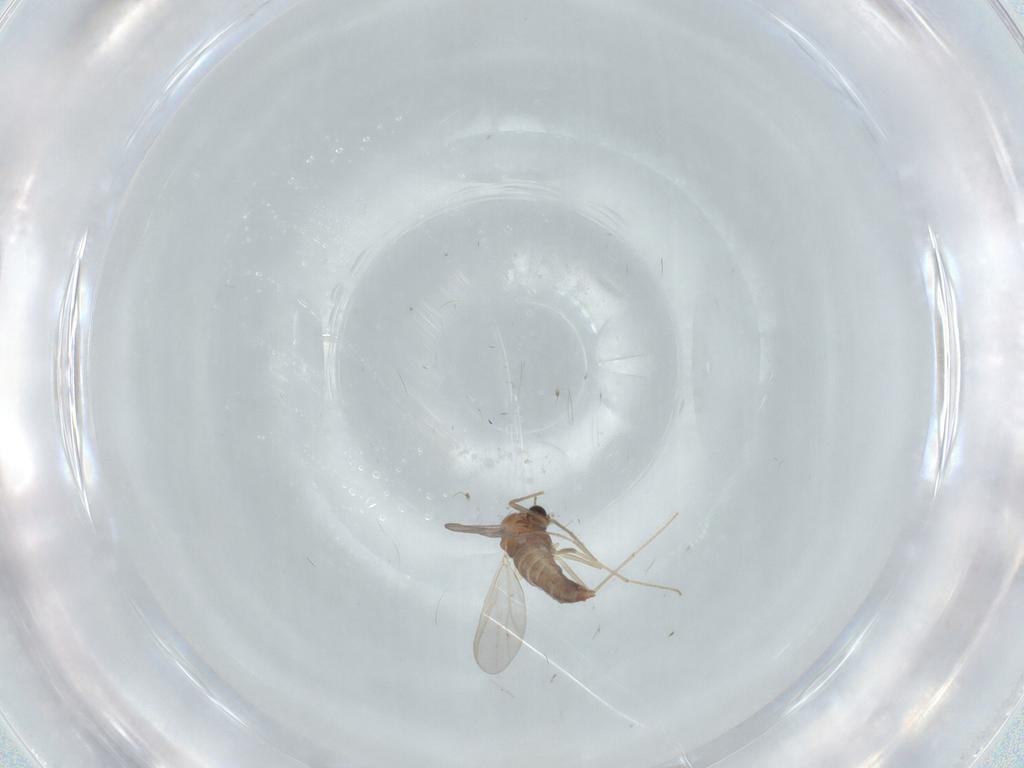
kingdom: Animalia
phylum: Arthropoda
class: Insecta
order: Diptera
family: Chironomidae
